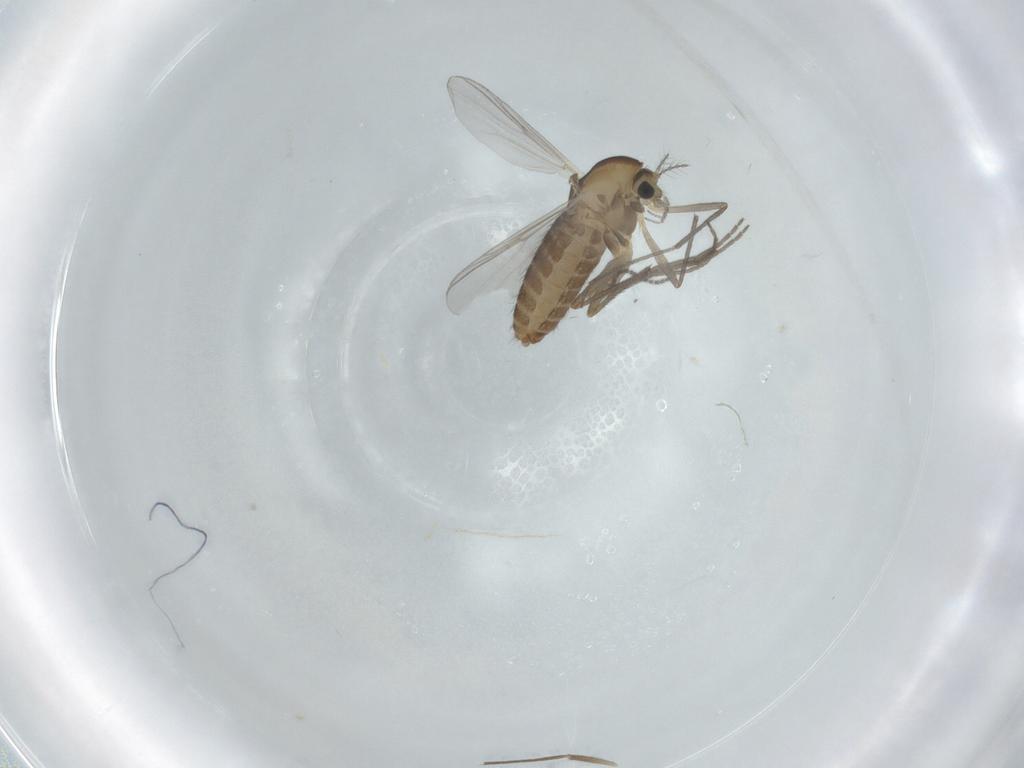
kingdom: Animalia
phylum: Arthropoda
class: Insecta
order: Diptera
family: Chironomidae
